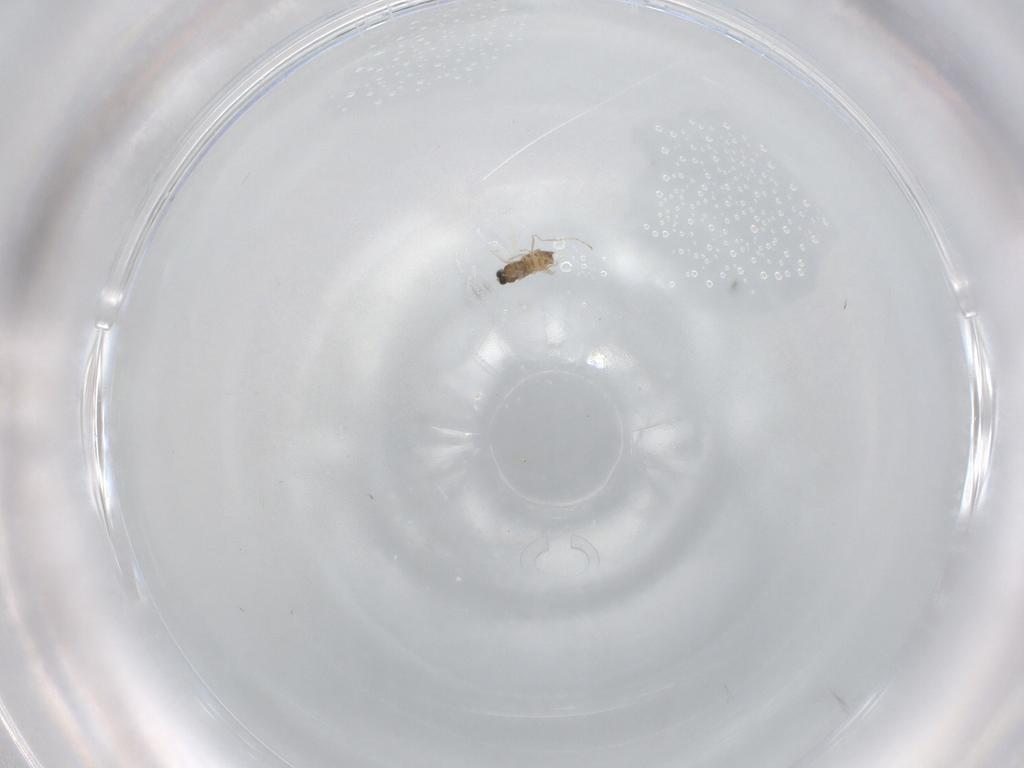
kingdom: Animalia
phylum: Arthropoda
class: Insecta
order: Diptera
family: Cecidomyiidae
